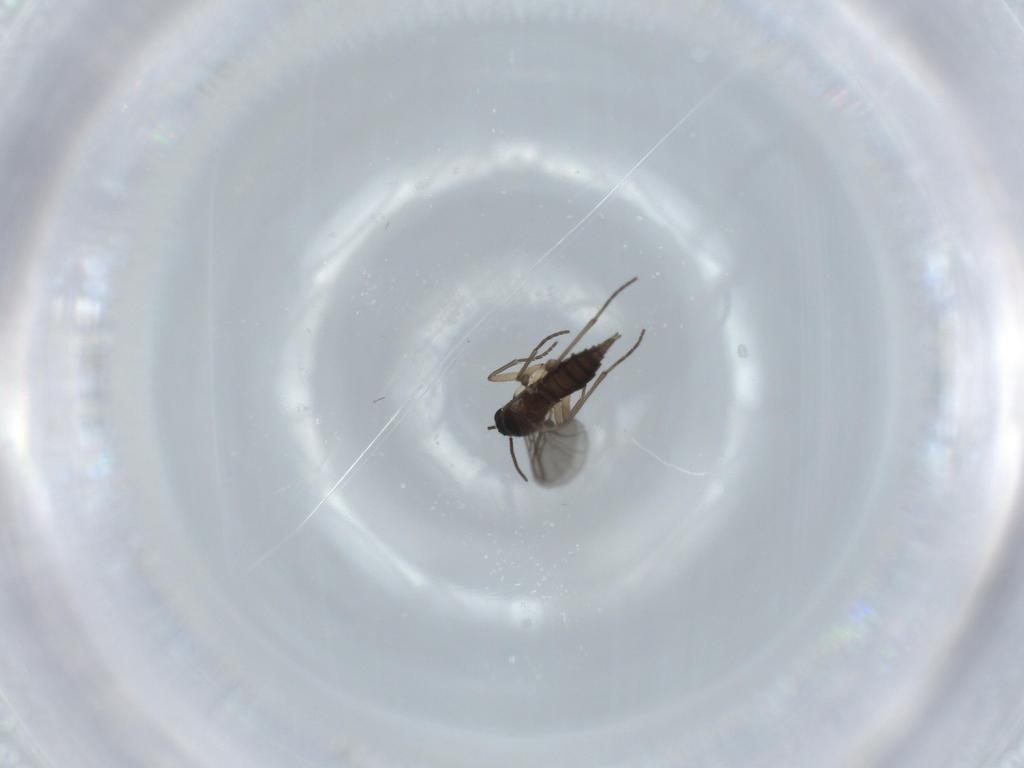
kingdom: Animalia
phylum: Arthropoda
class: Insecta
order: Diptera
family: Sciaridae
